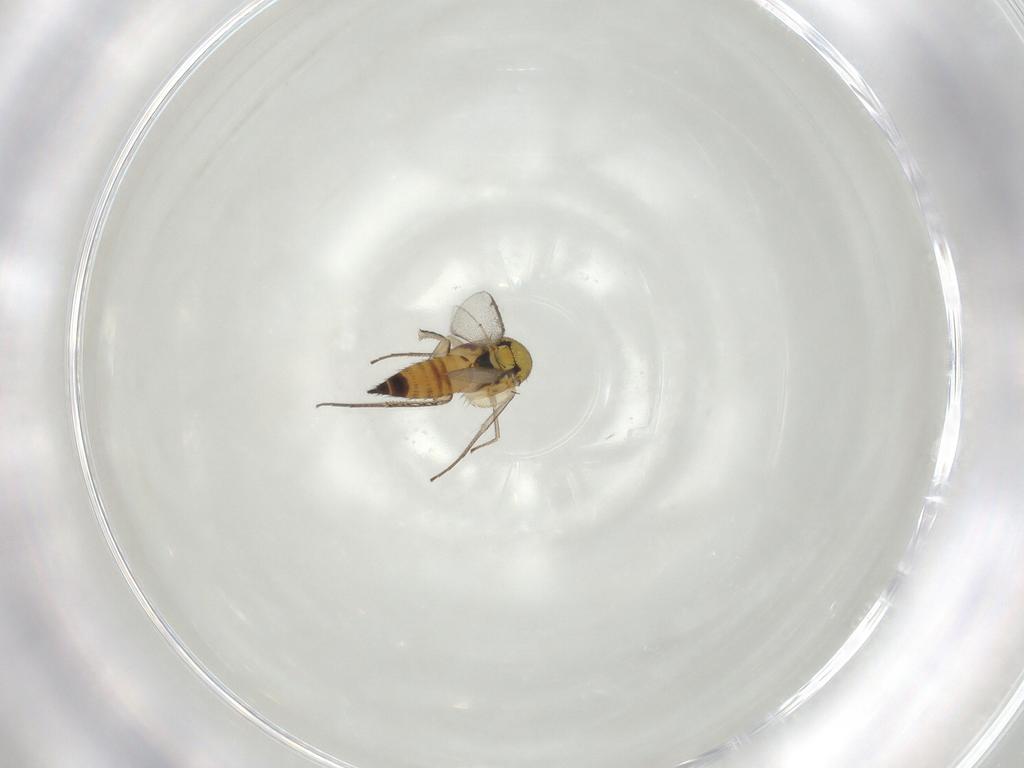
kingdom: Animalia
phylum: Arthropoda
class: Insecta
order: Hymenoptera
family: Eulophidae
